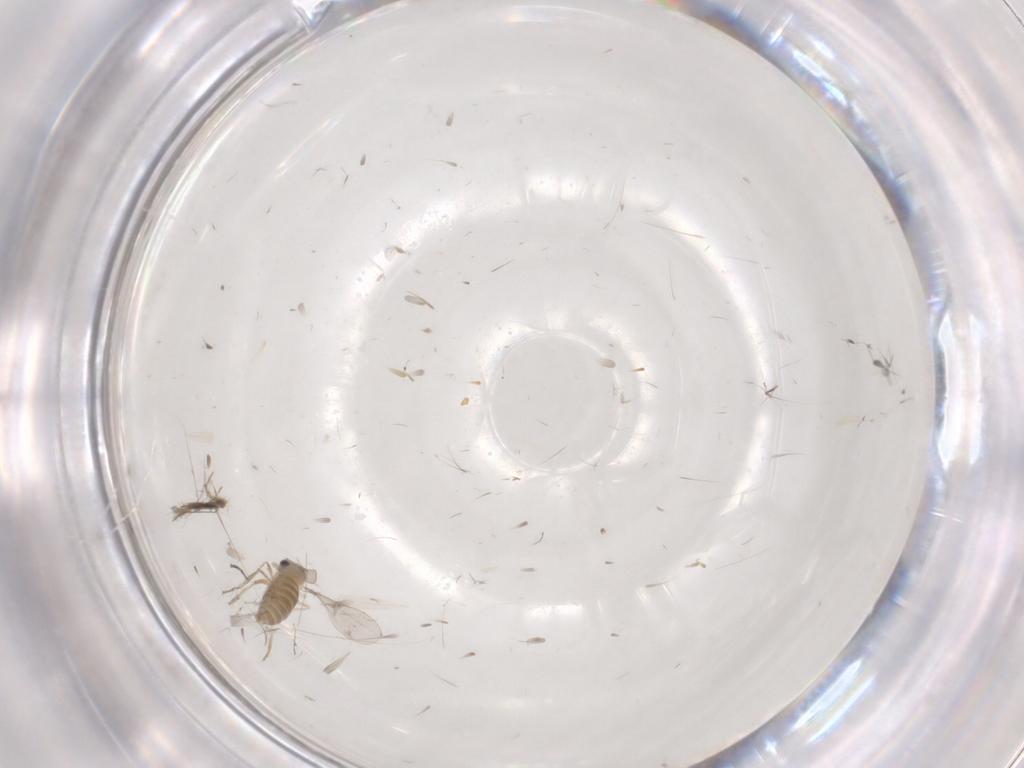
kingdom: Animalia
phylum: Arthropoda
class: Insecta
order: Diptera
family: Cecidomyiidae
